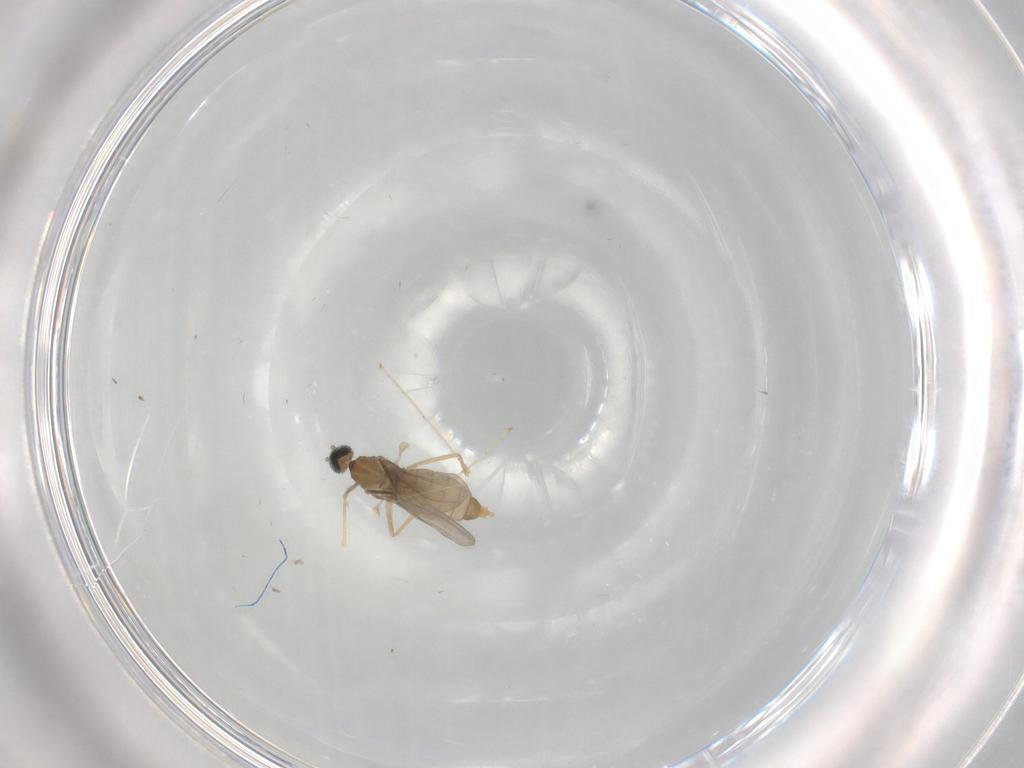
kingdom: Animalia
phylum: Arthropoda
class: Insecta
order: Diptera
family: Cecidomyiidae
